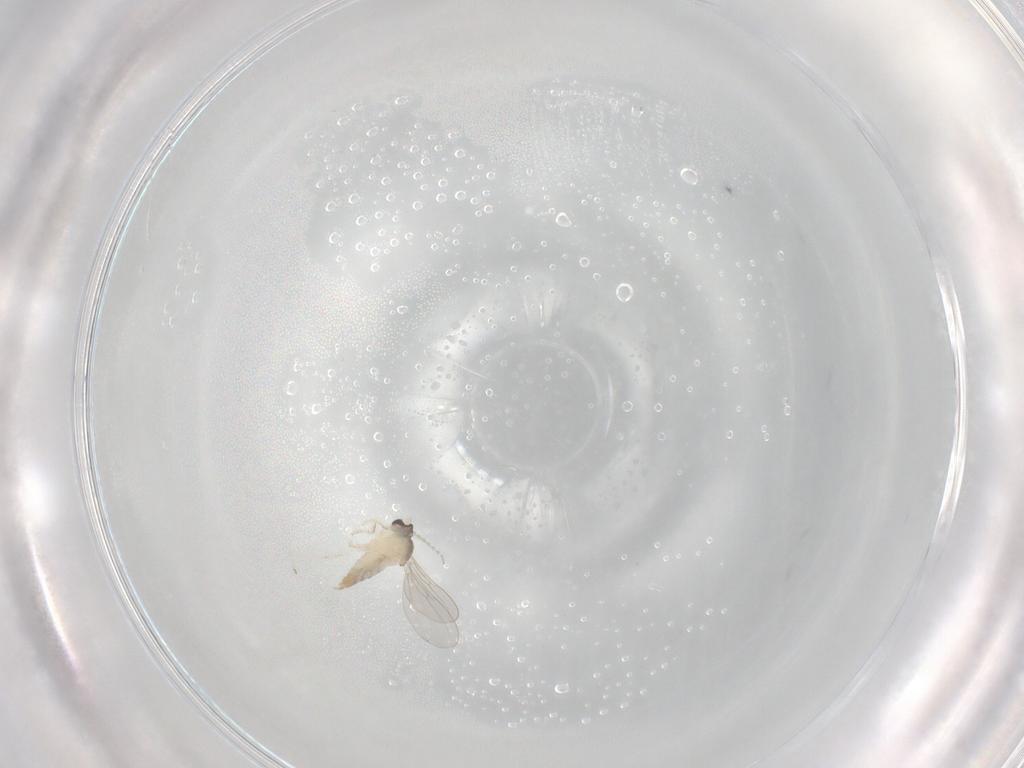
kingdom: Animalia
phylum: Arthropoda
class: Insecta
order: Diptera
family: Cecidomyiidae
